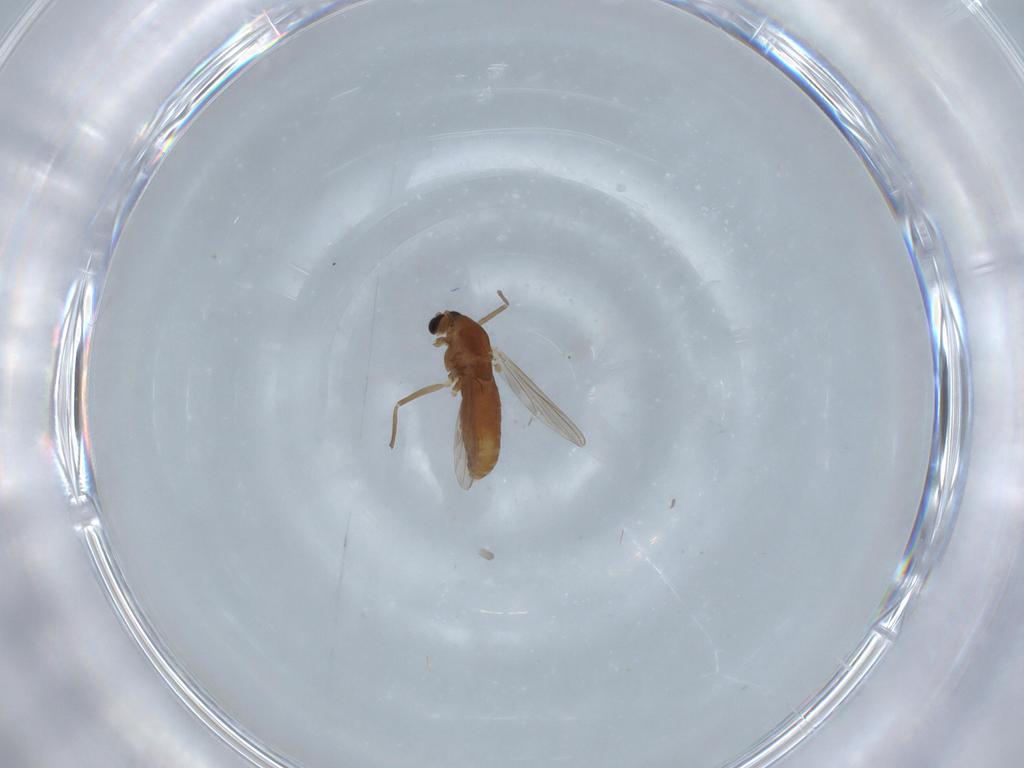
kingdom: Animalia
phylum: Arthropoda
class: Insecta
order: Diptera
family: Chironomidae
